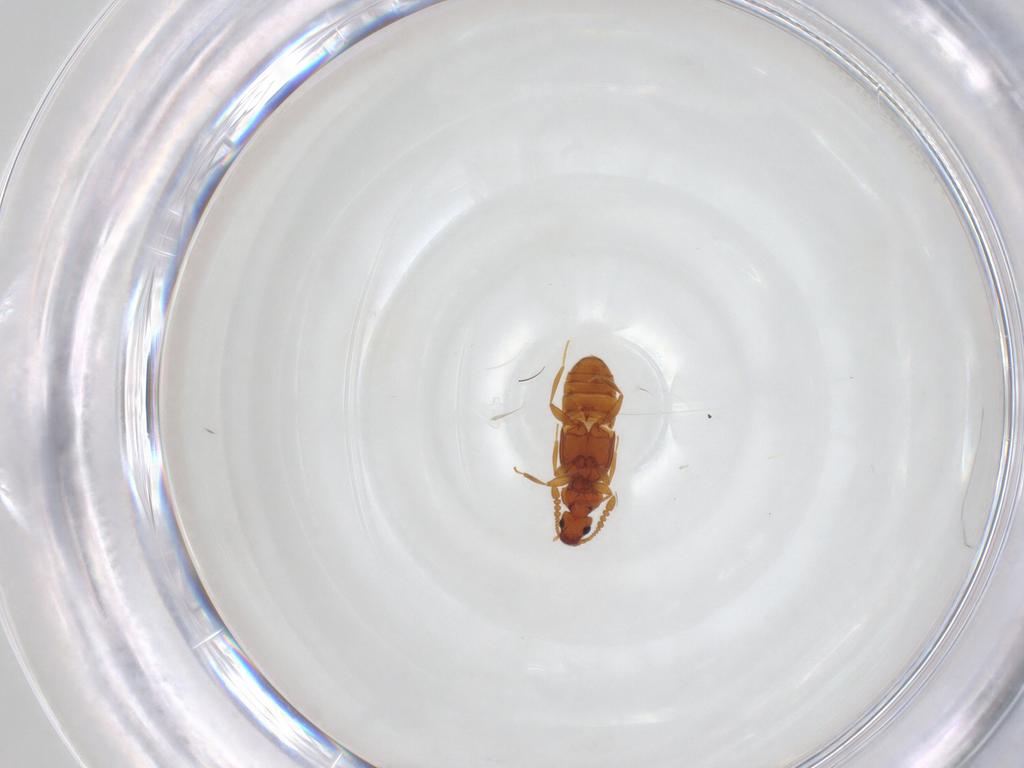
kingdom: Animalia
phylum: Arthropoda
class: Insecta
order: Coleoptera
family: Staphylinidae
